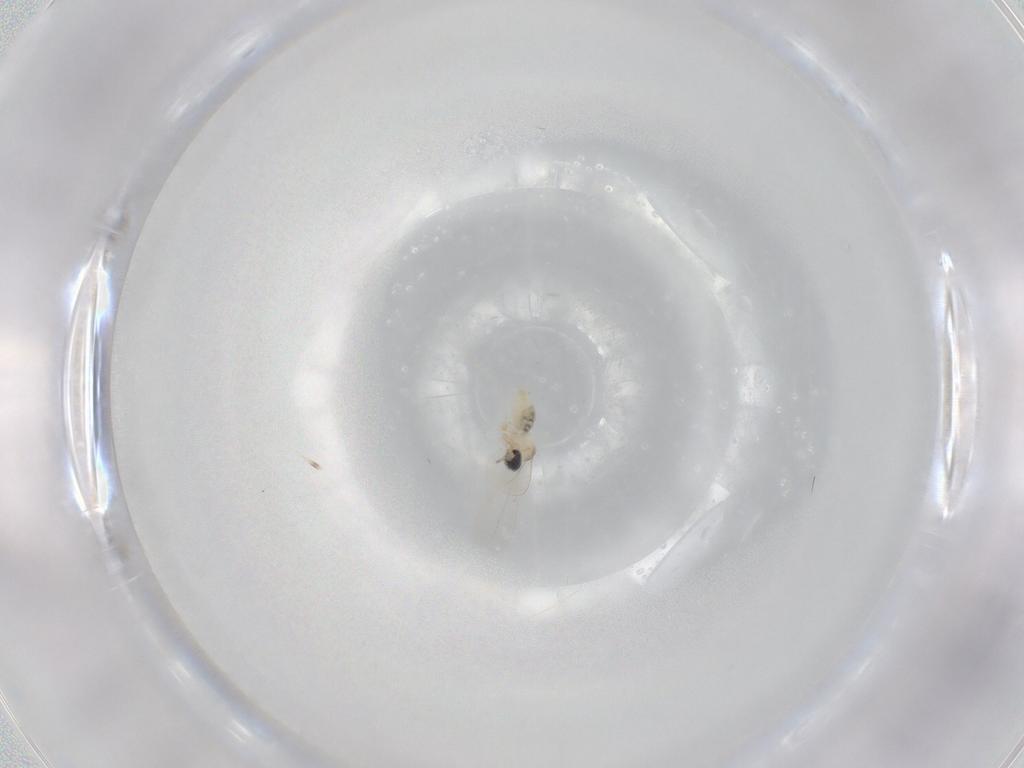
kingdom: Animalia
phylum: Arthropoda
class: Insecta
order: Diptera
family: Cecidomyiidae
